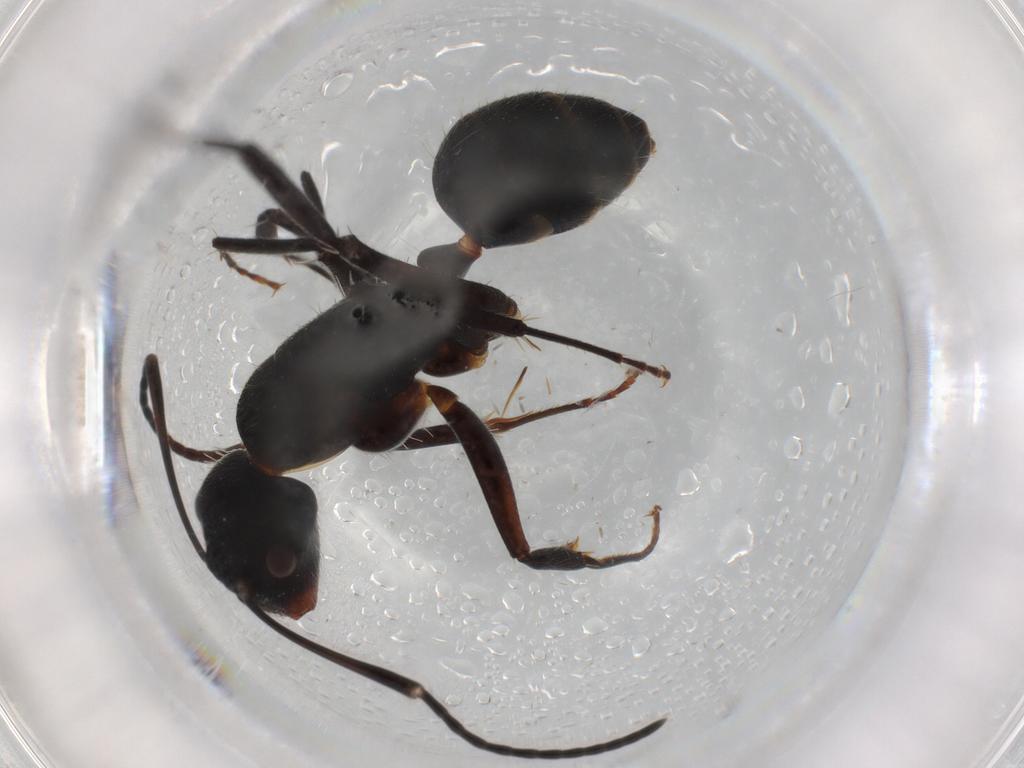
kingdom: Animalia
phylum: Arthropoda
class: Insecta
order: Hymenoptera
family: Formicidae
